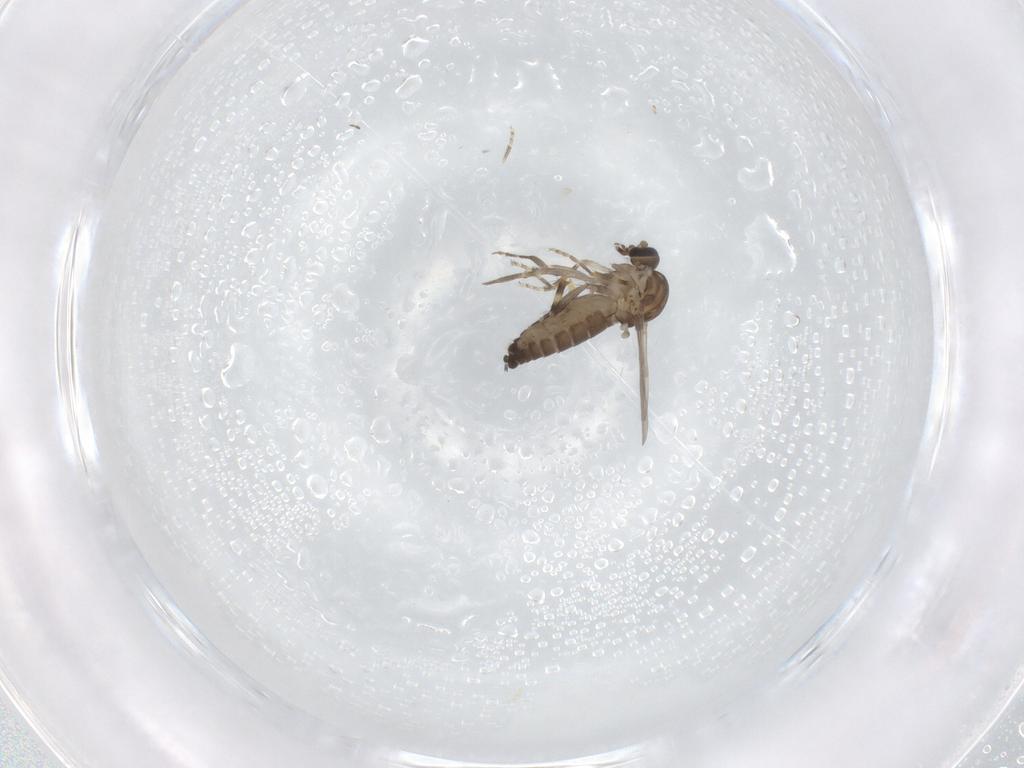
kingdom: Animalia
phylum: Arthropoda
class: Insecta
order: Diptera
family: Ceratopogonidae
